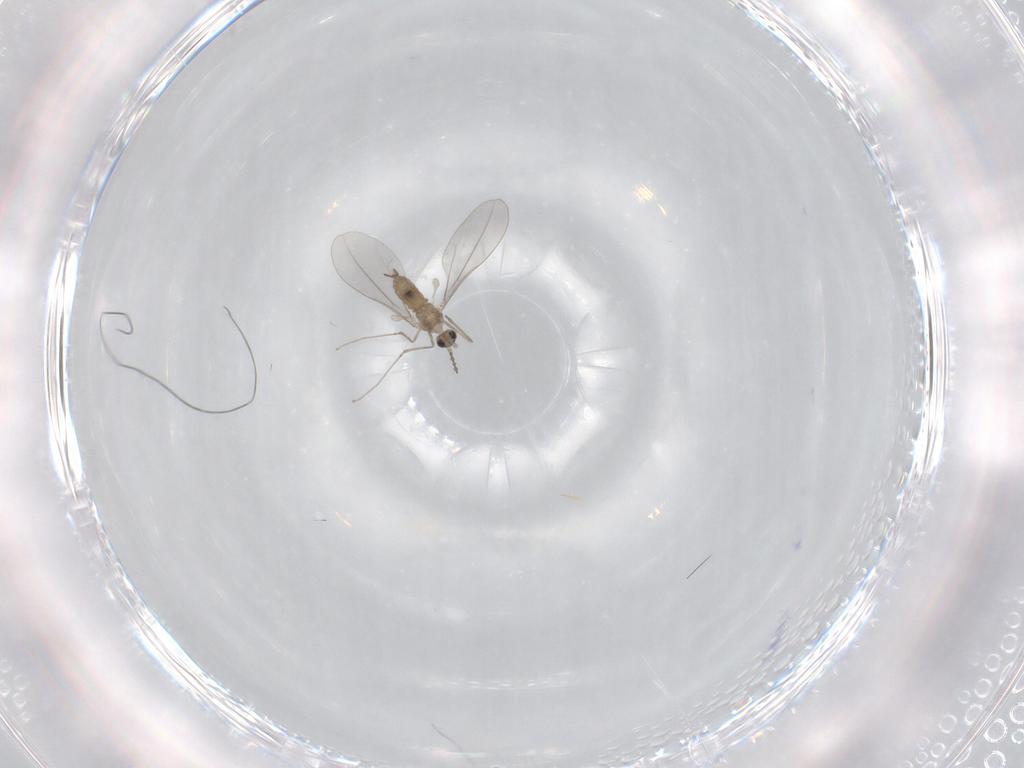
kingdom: Animalia
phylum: Arthropoda
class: Insecta
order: Diptera
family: Cecidomyiidae
